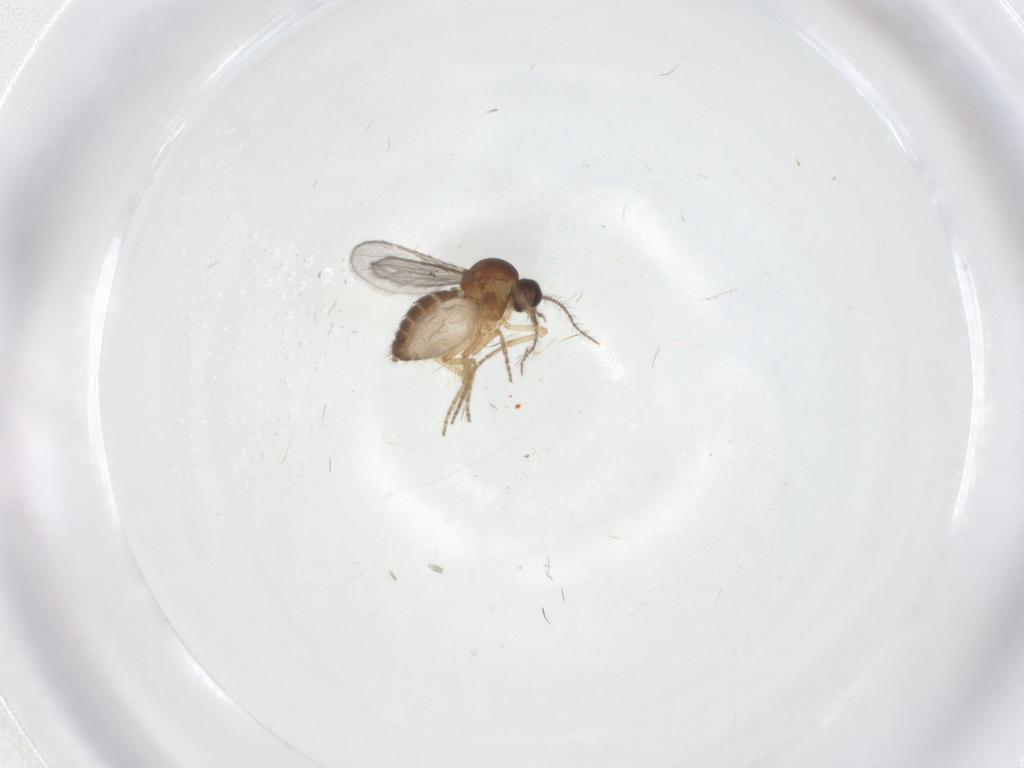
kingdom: Animalia
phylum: Arthropoda
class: Insecta
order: Diptera
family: Ceratopogonidae
